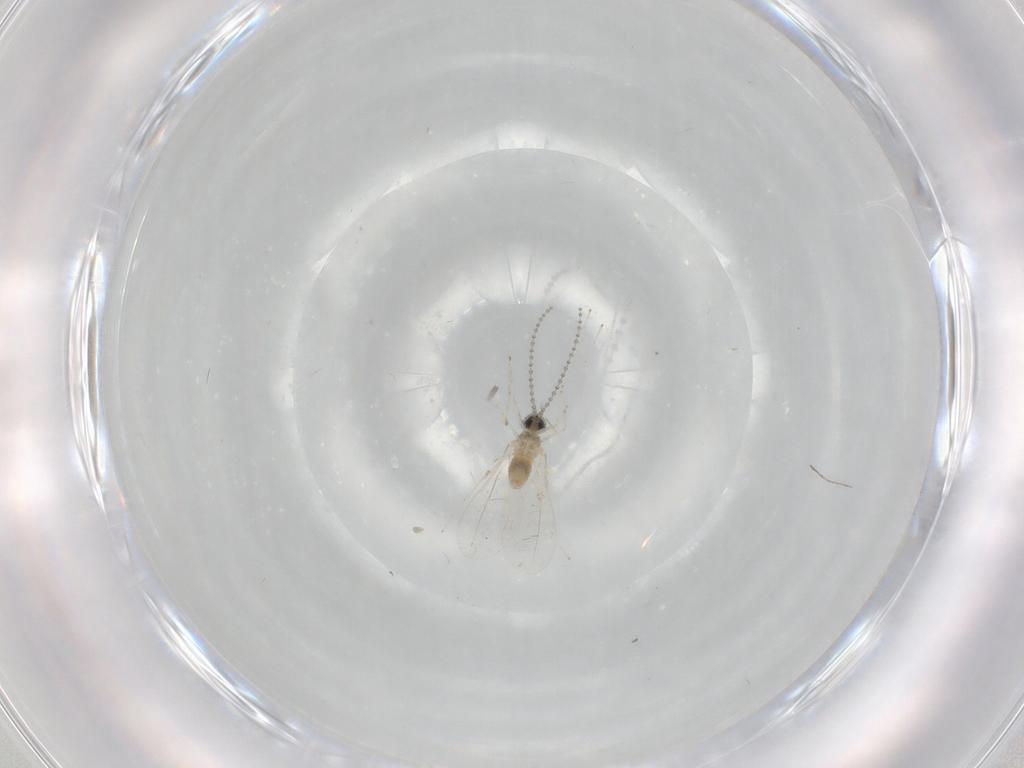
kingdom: Animalia
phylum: Arthropoda
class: Insecta
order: Diptera
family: Cecidomyiidae
